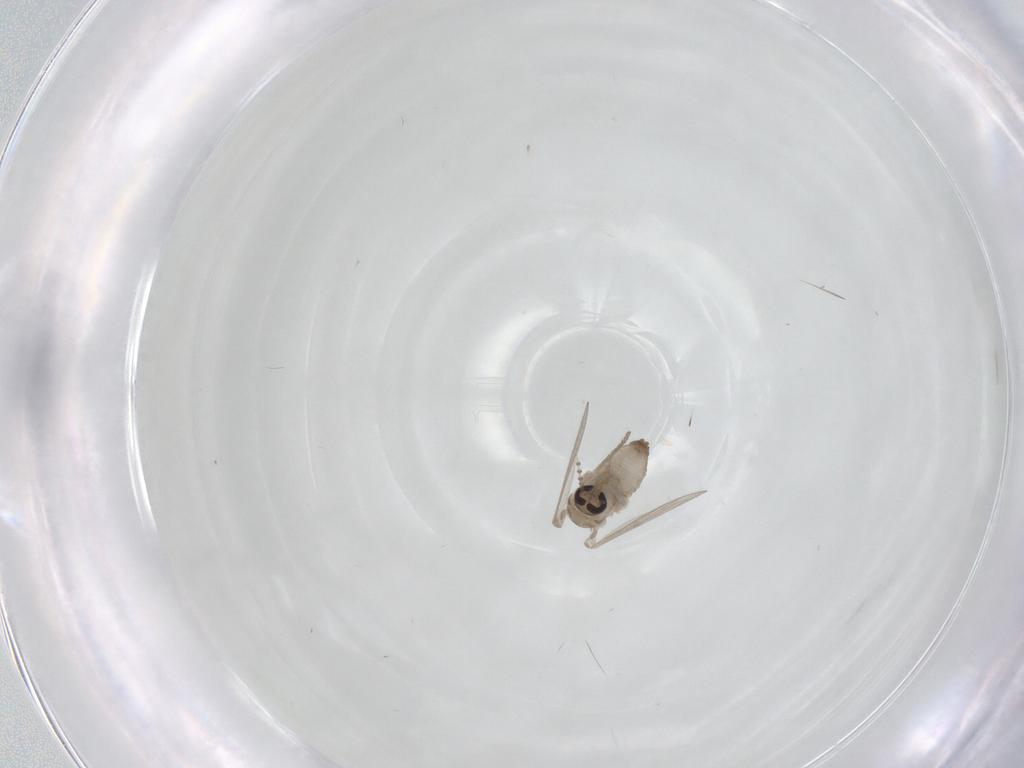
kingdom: Animalia
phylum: Arthropoda
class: Insecta
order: Diptera
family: Psychodidae
